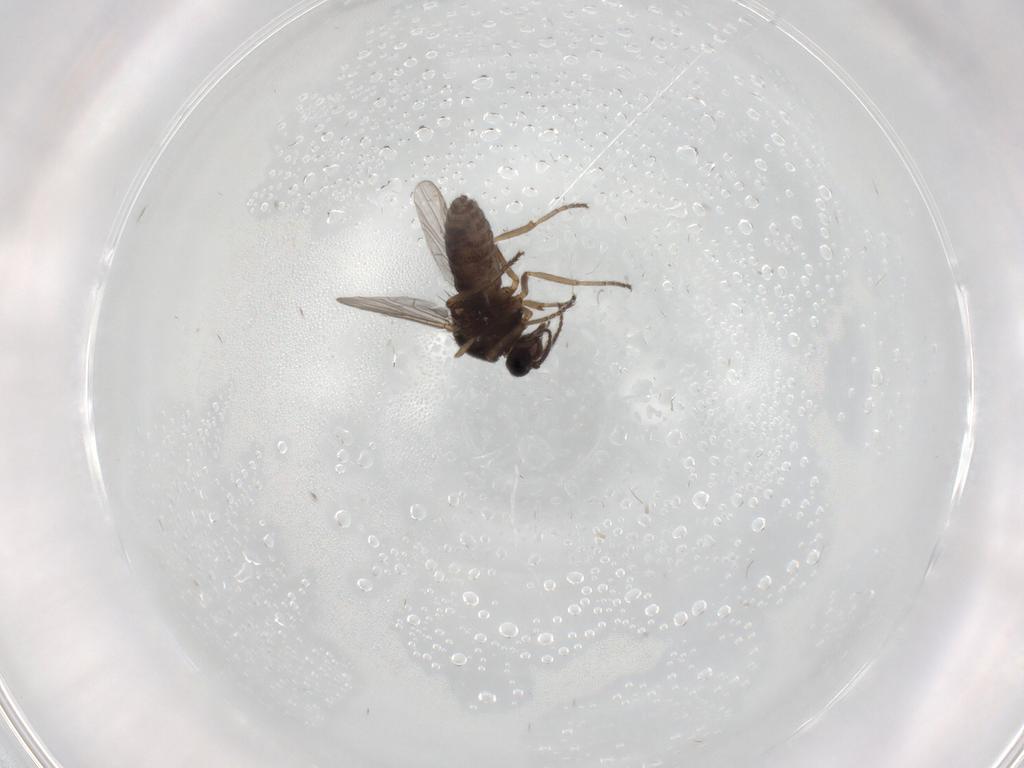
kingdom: Animalia
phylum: Arthropoda
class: Insecta
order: Diptera
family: Ceratopogonidae
